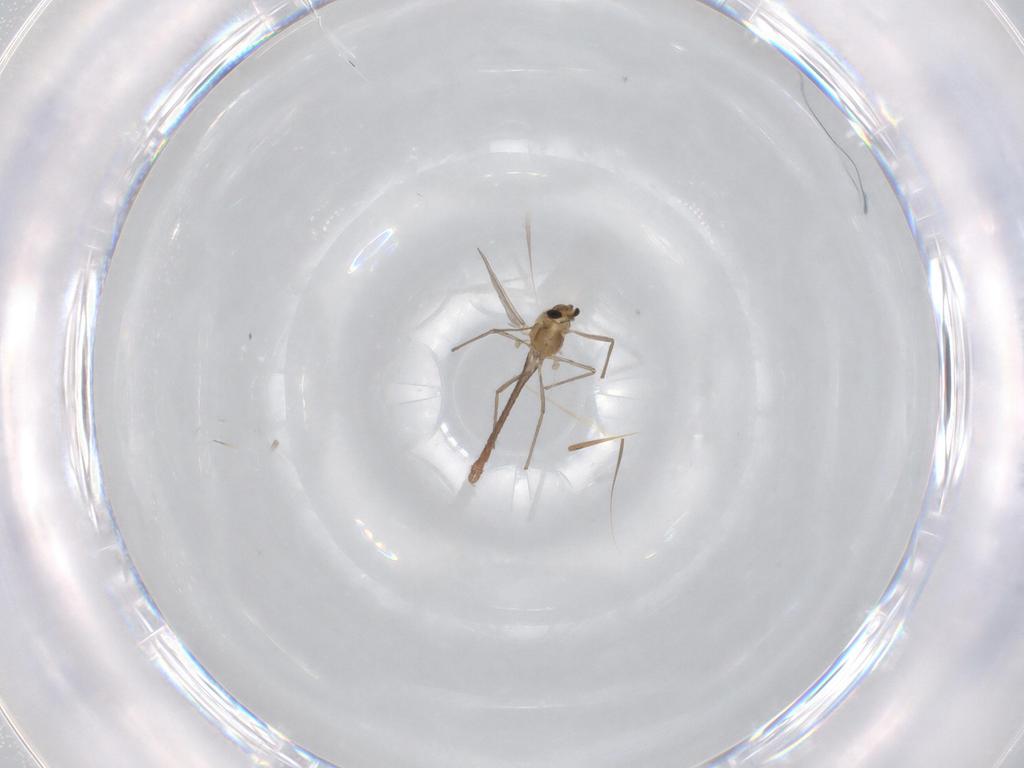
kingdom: Animalia
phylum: Arthropoda
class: Insecta
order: Diptera
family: Chironomidae
